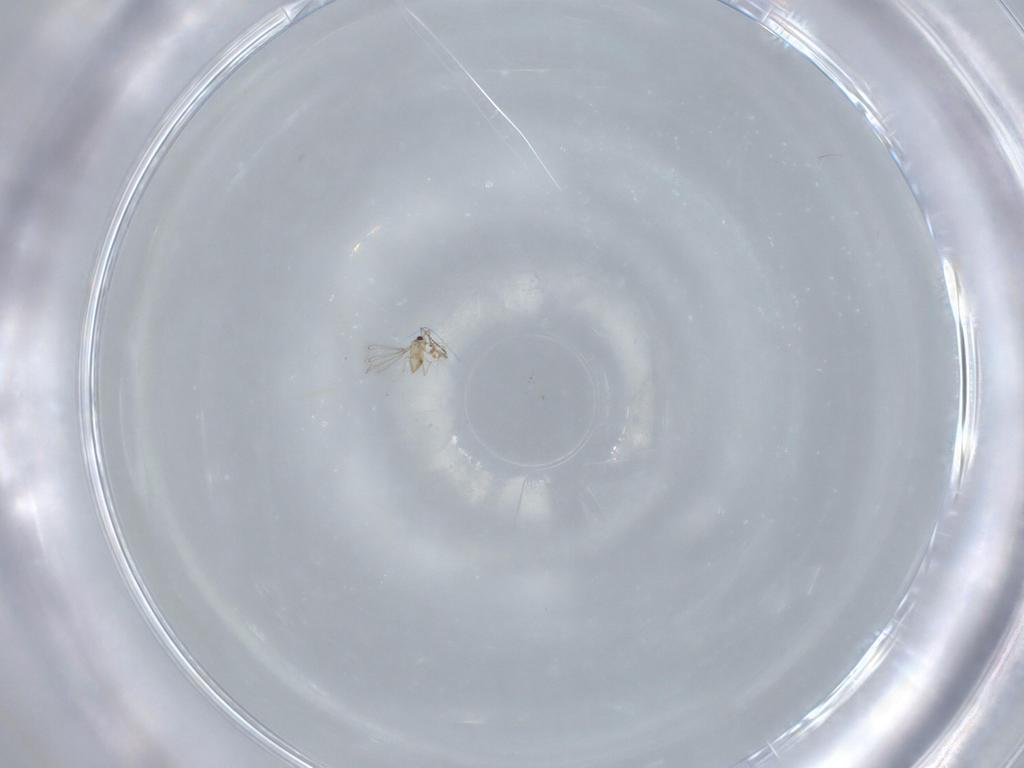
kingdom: Animalia
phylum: Arthropoda
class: Insecta
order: Hymenoptera
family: Mymaridae
